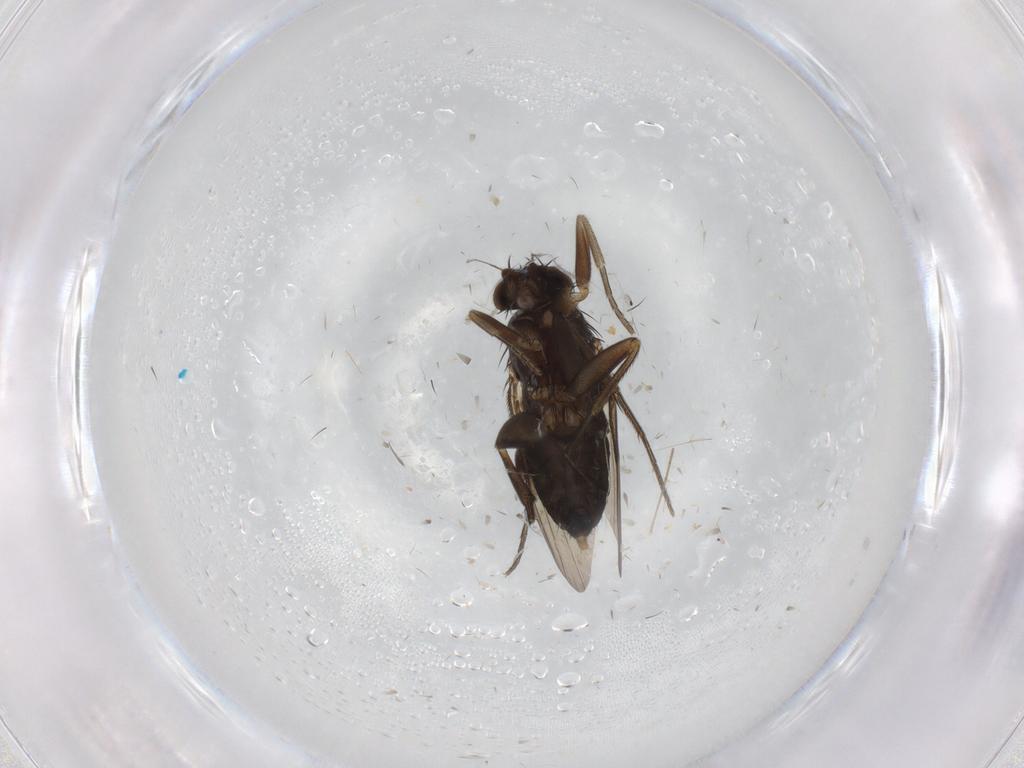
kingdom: Animalia
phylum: Arthropoda
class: Insecta
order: Diptera
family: Phoridae
